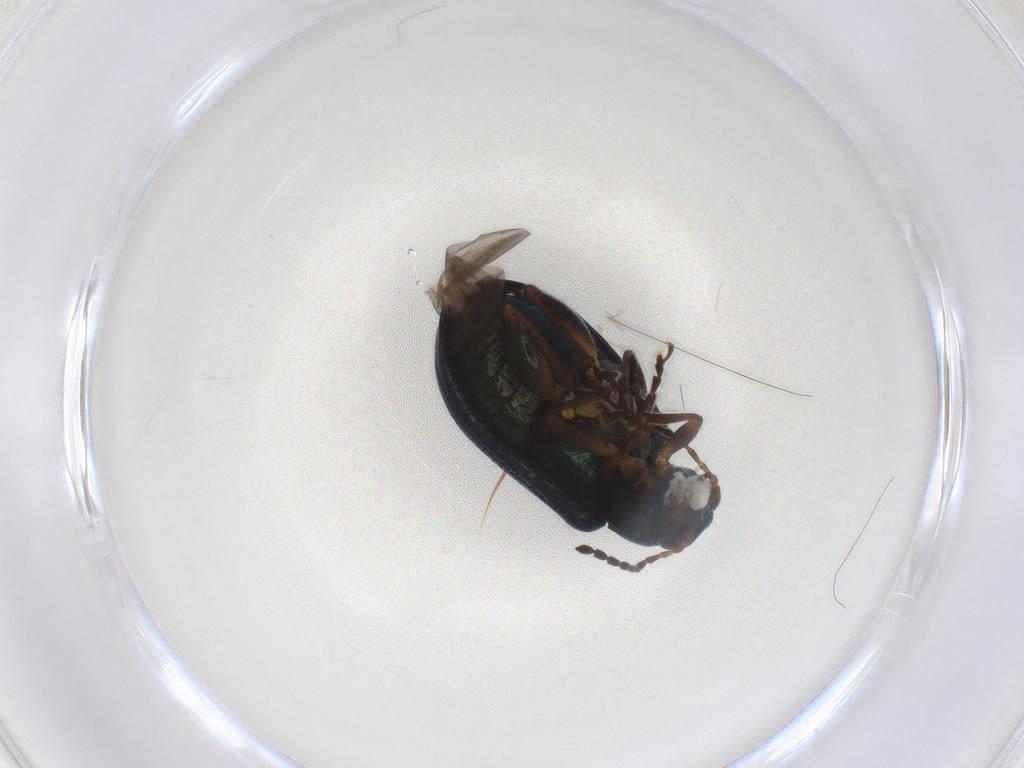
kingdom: Animalia
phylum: Arthropoda
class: Insecta
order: Coleoptera
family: Chrysomelidae
